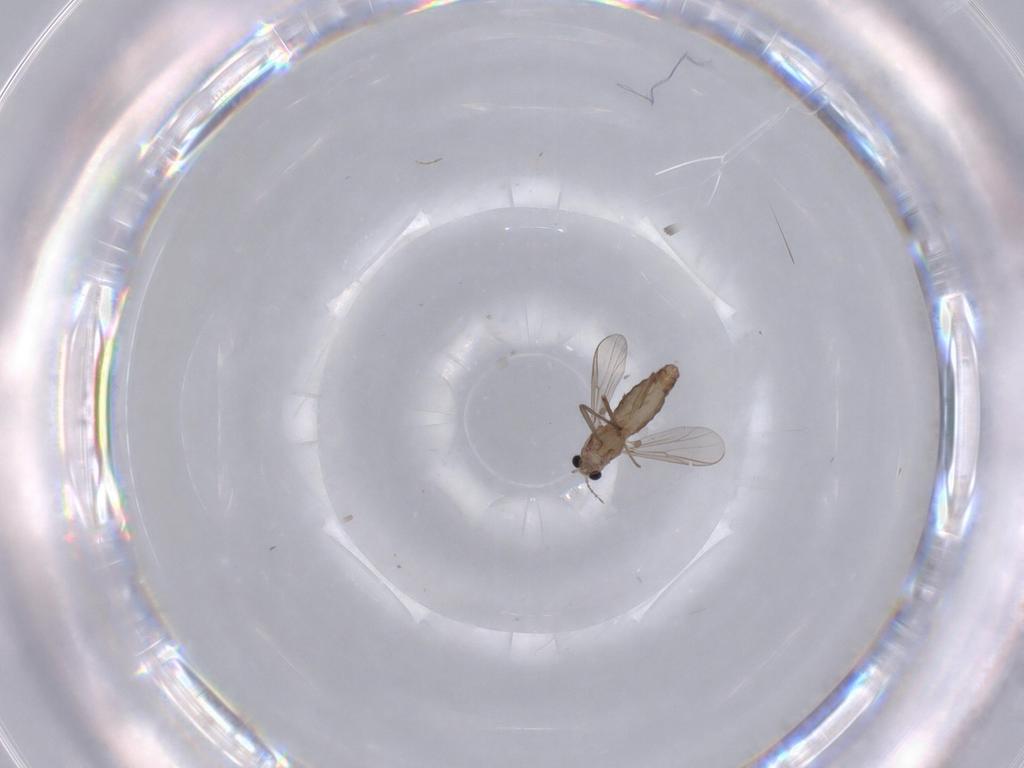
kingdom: Animalia
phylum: Arthropoda
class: Insecta
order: Diptera
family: Chironomidae
